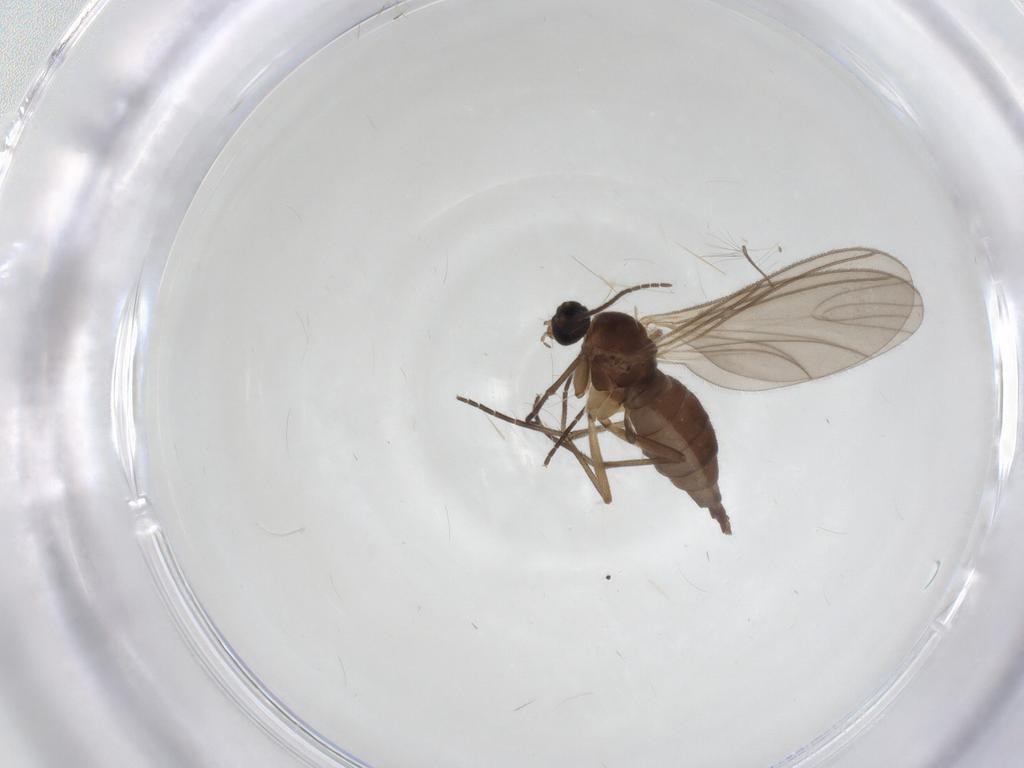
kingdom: Animalia
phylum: Arthropoda
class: Insecta
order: Diptera
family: Sciaridae
